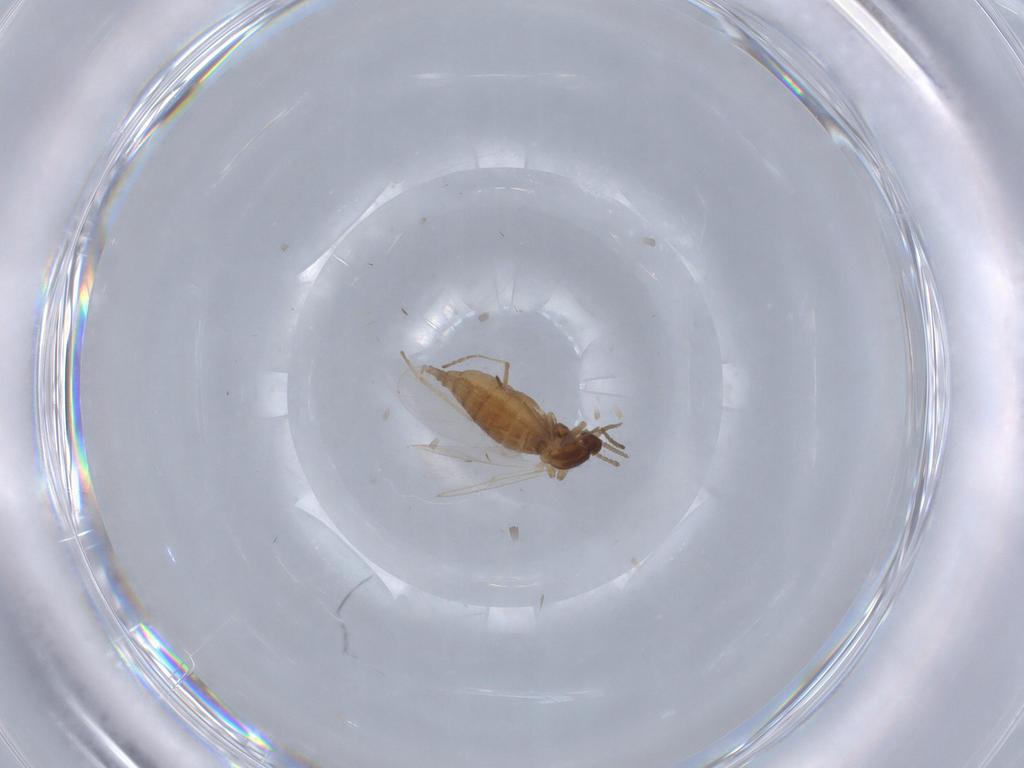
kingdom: Animalia
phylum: Arthropoda
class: Insecta
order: Diptera
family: Cecidomyiidae
